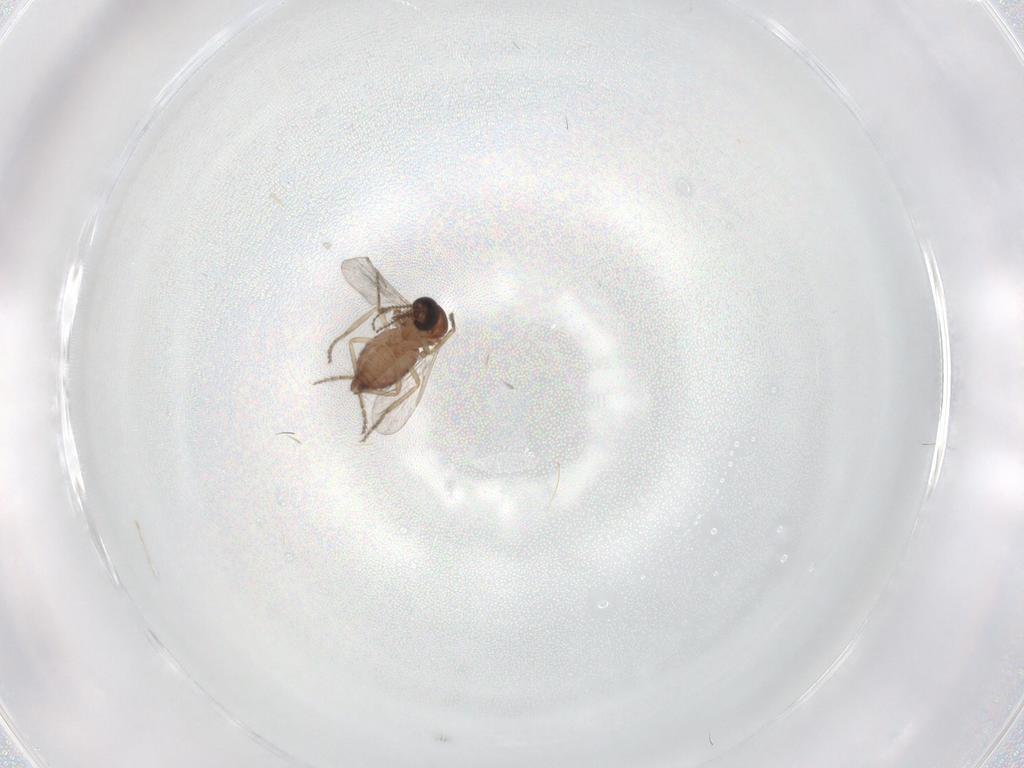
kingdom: Animalia
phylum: Arthropoda
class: Insecta
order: Diptera
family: Ceratopogonidae
